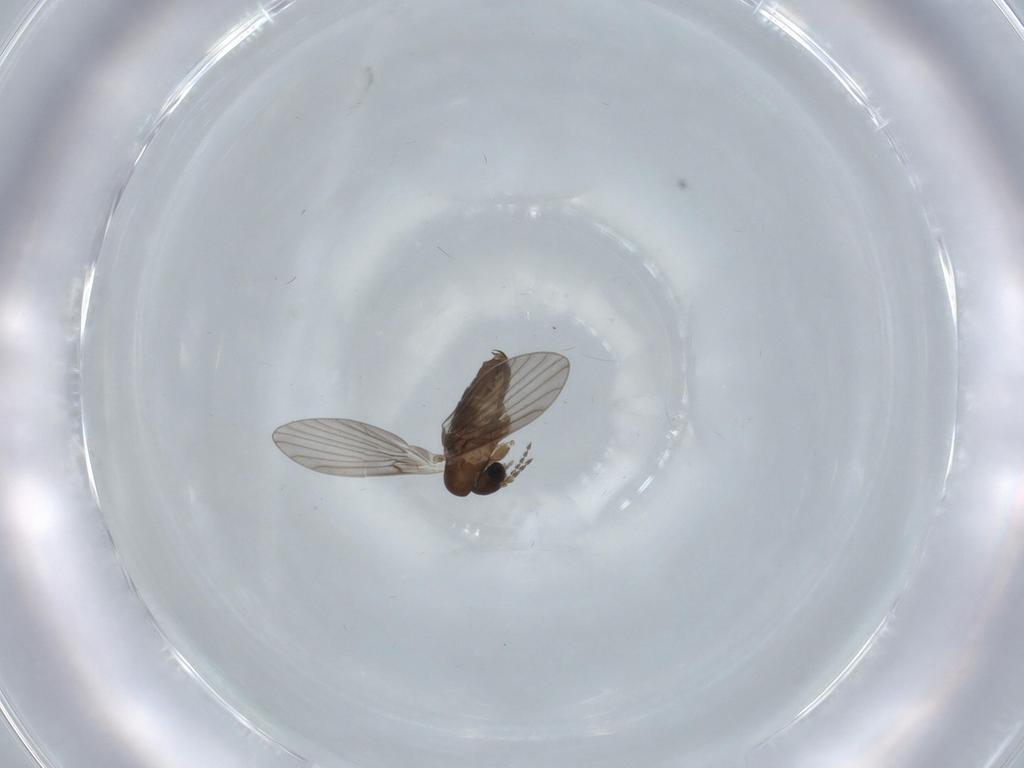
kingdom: Animalia
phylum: Arthropoda
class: Insecta
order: Diptera
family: Psychodidae
